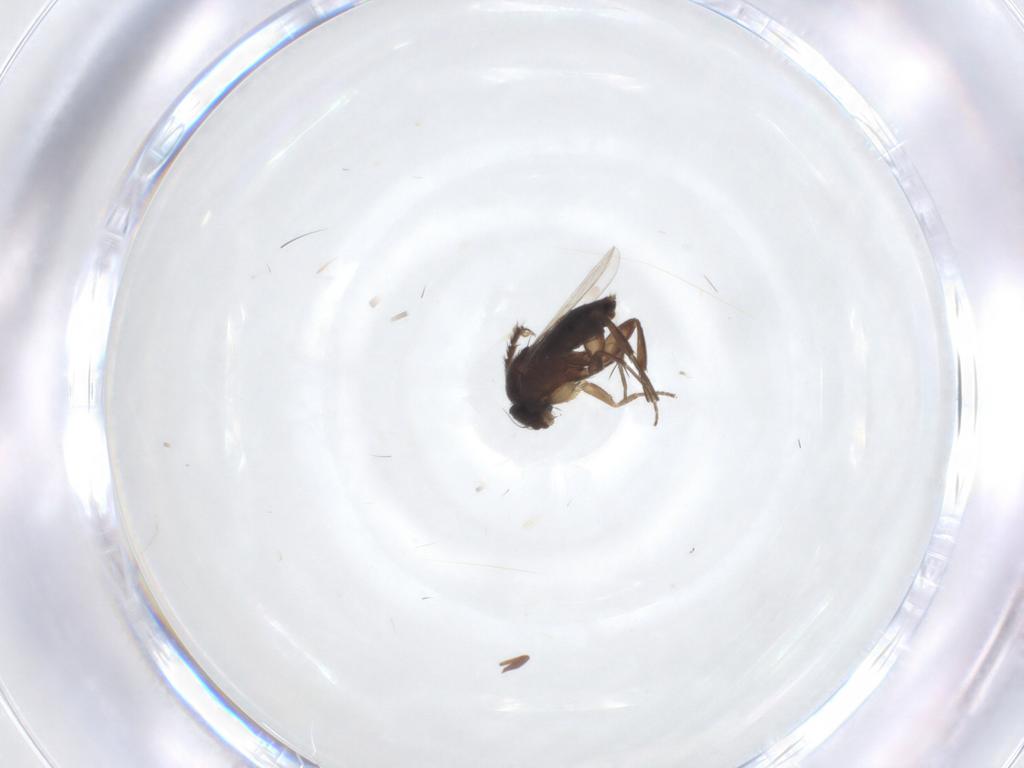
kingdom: Animalia
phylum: Arthropoda
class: Insecta
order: Diptera
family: Phoridae
